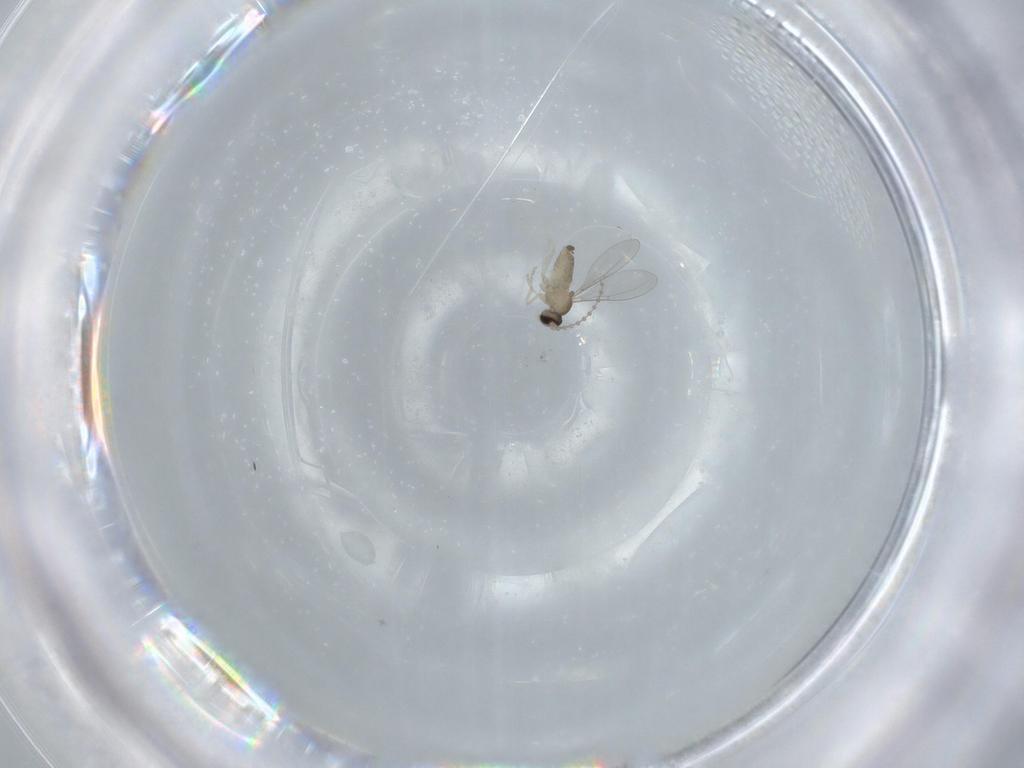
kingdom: Animalia
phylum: Arthropoda
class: Insecta
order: Diptera
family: Cecidomyiidae
